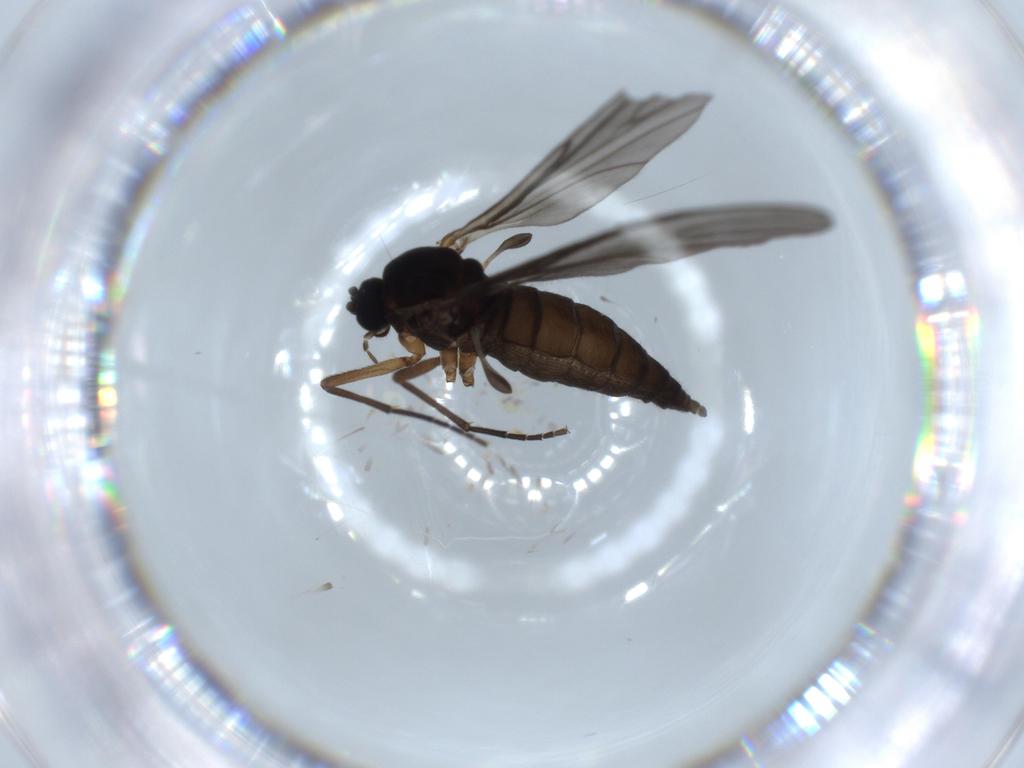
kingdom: Animalia
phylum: Arthropoda
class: Insecta
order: Diptera
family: Sciaridae
